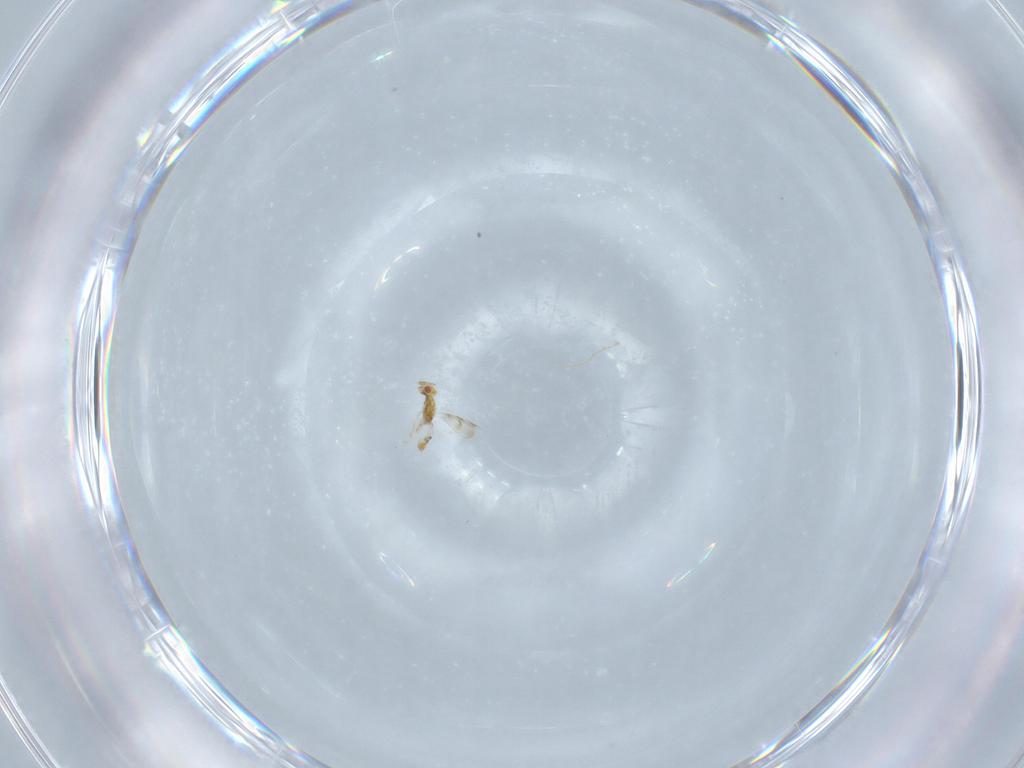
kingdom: Animalia
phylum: Arthropoda
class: Insecta
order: Hymenoptera
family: Eulophidae
